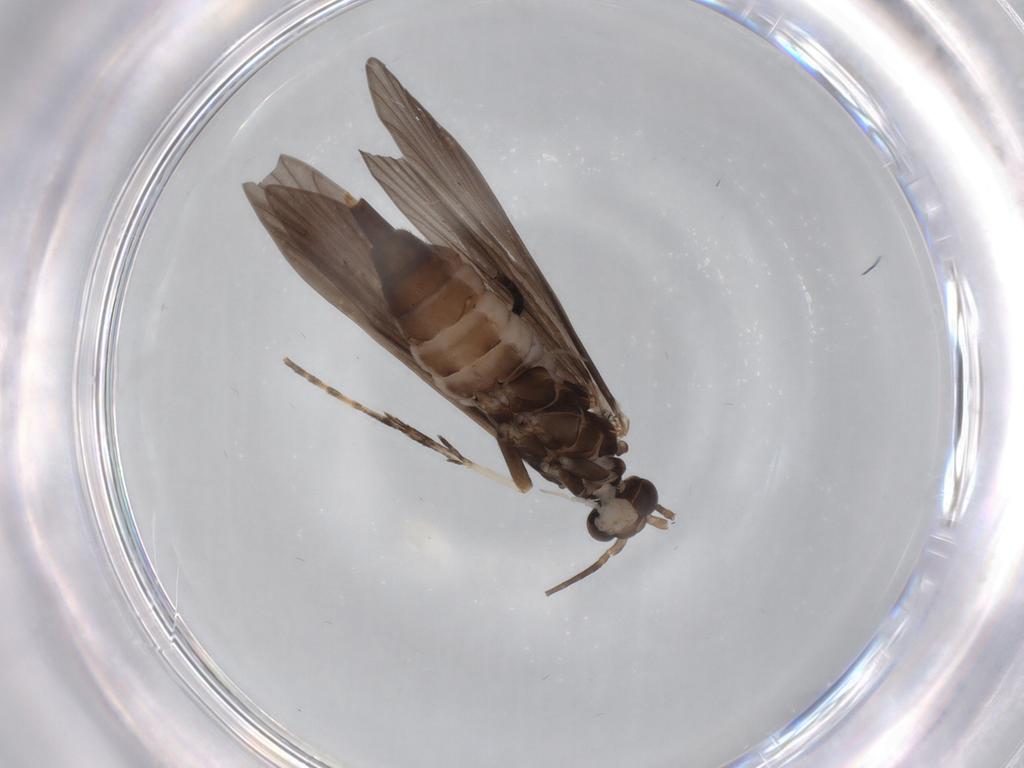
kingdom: Animalia
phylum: Arthropoda
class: Insecta
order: Trichoptera
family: Xiphocentronidae
